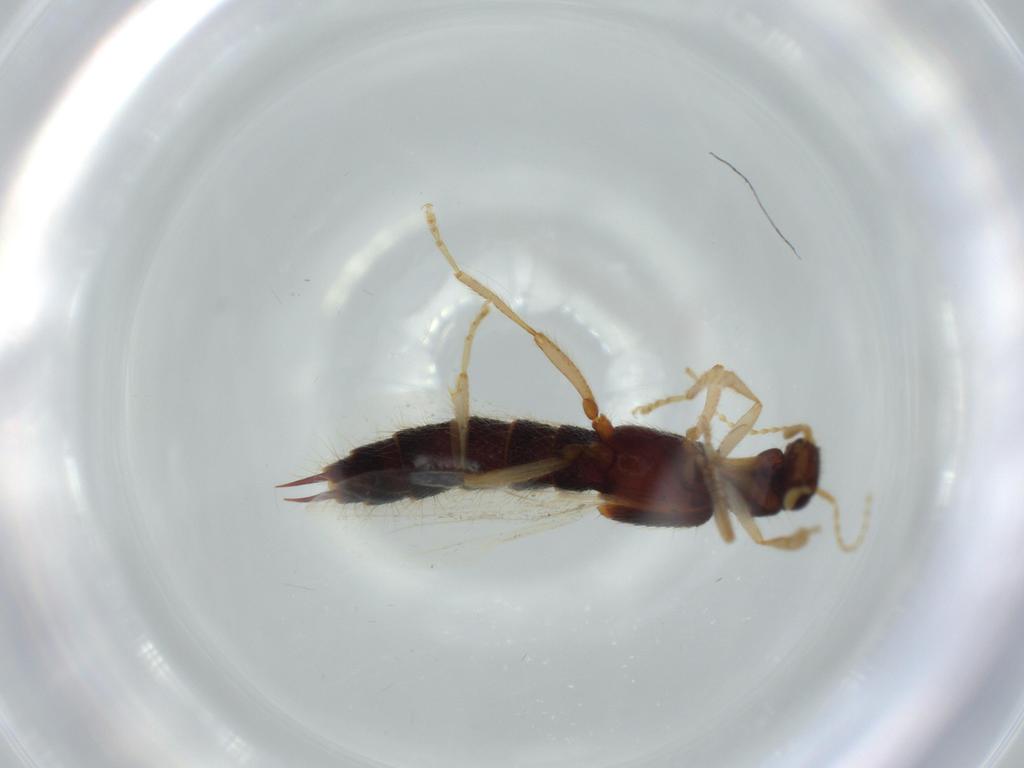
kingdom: Animalia
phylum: Arthropoda
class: Insecta
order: Coleoptera
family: Staphylinidae
